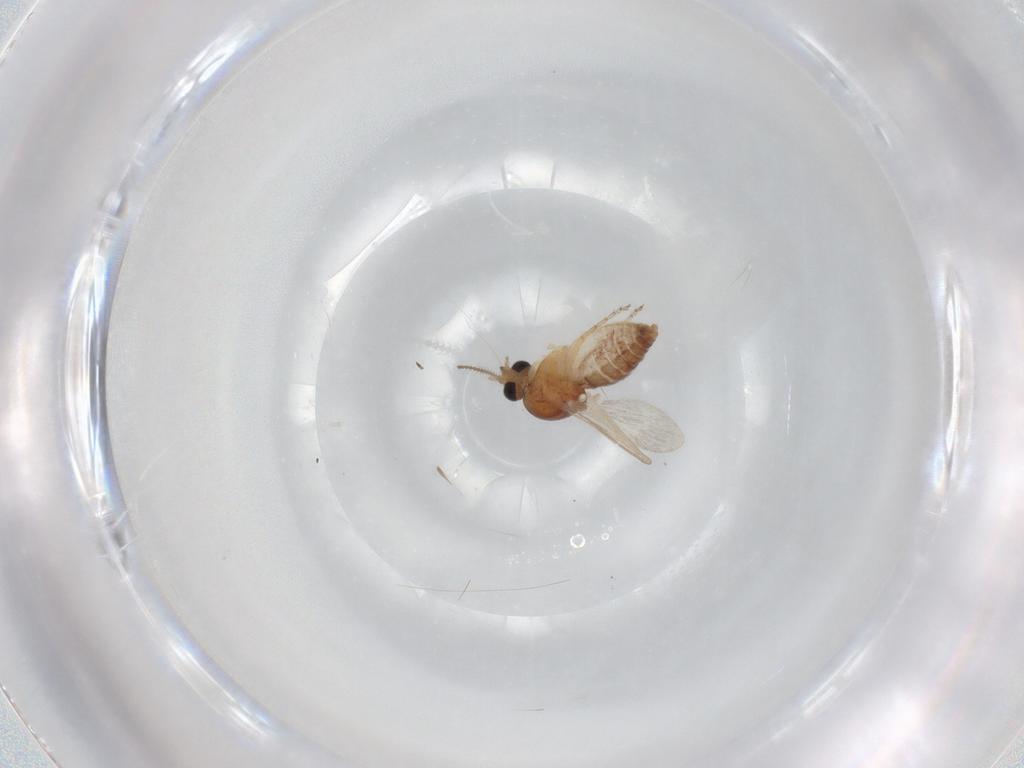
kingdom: Animalia
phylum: Arthropoda
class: Insecta
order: Diptera
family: Ceratopogonidae
